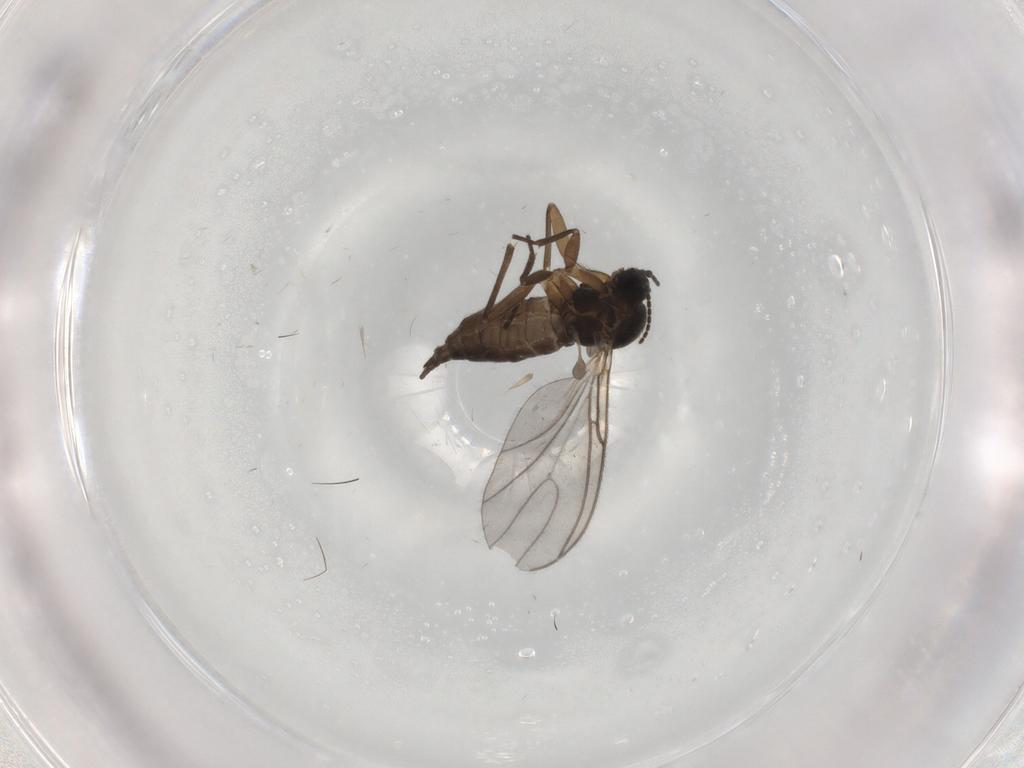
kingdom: Animalia
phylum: Arthropoda
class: Insecta
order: Diptera
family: Sciaridae
